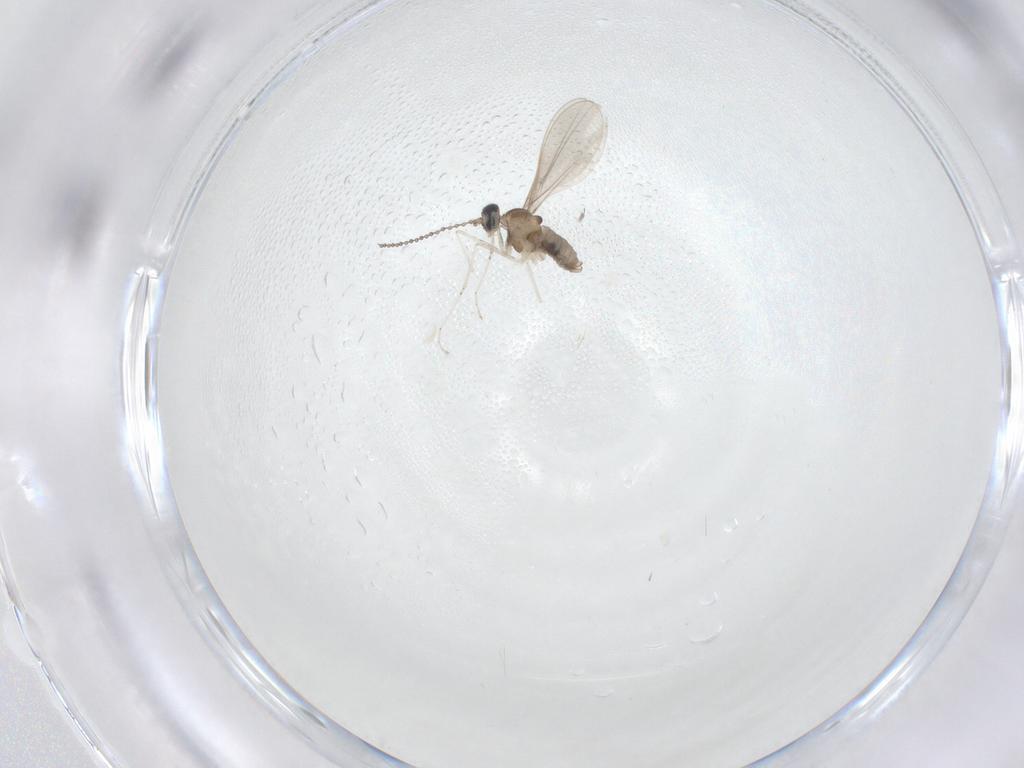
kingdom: Animalia
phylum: Arthropoda
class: Insecta
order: Diptera
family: Cecidomyiidae
